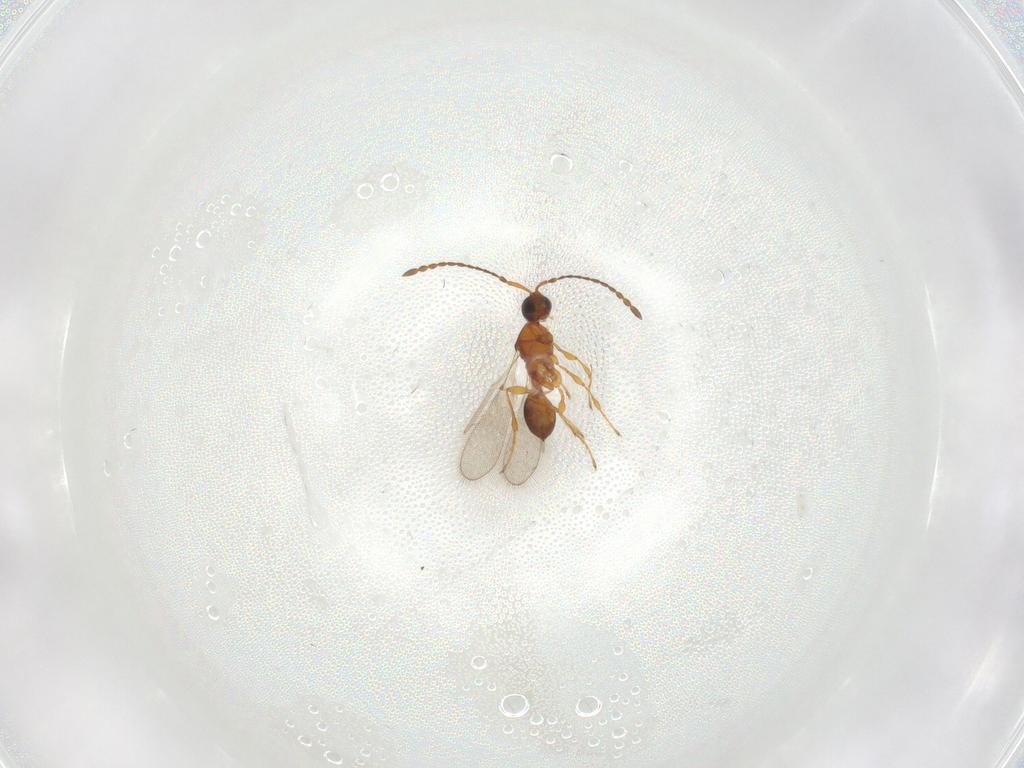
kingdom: Animalia
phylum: Arthropoda
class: Insecta
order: Hymenoptera
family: Diapriidae
